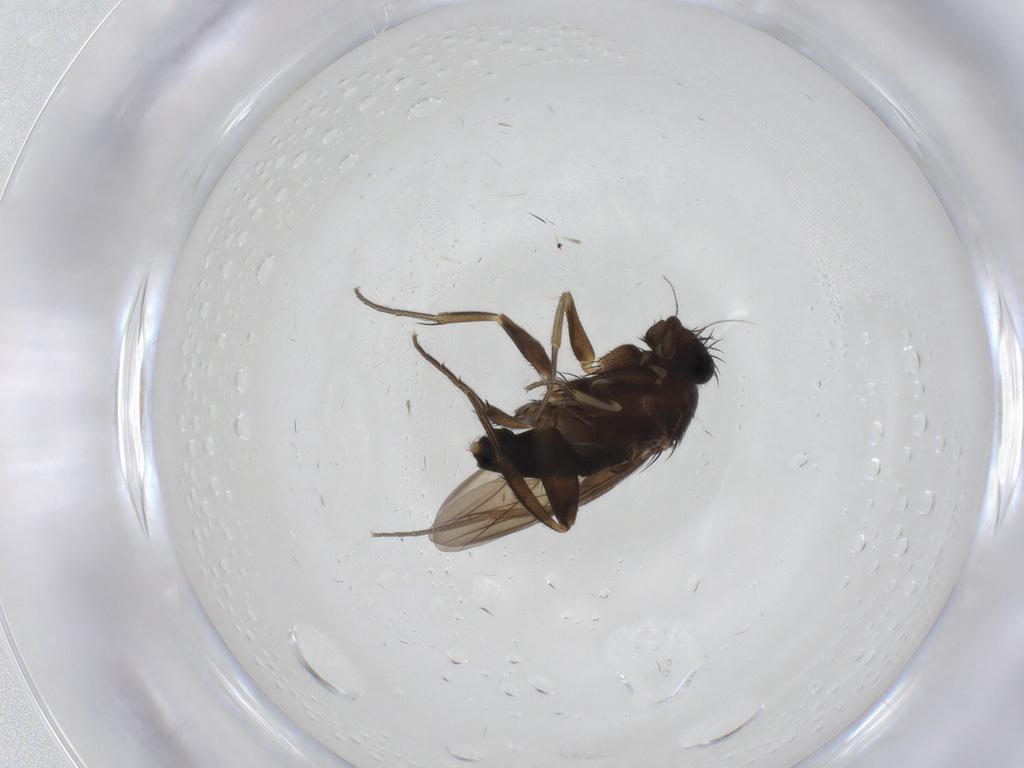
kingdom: Animalia
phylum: Arthropoda
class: Insecta
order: Diptera
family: Phoridae
